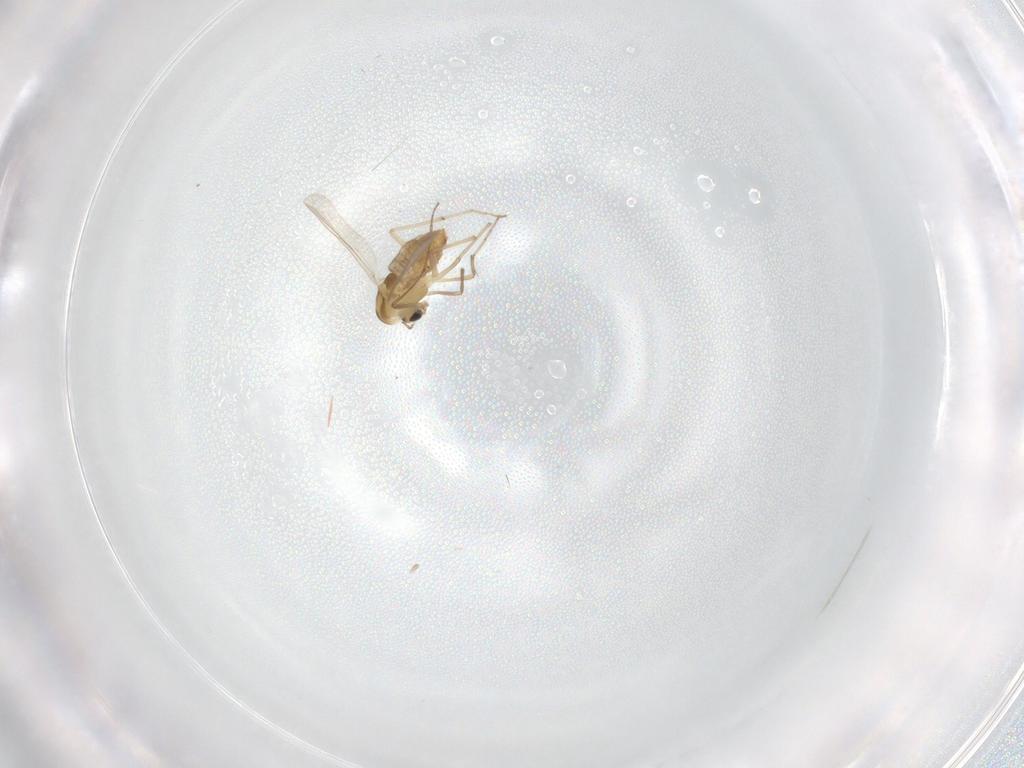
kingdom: Animalia
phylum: Arthropoda
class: Insecta
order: Diptera
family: Chironomidae
